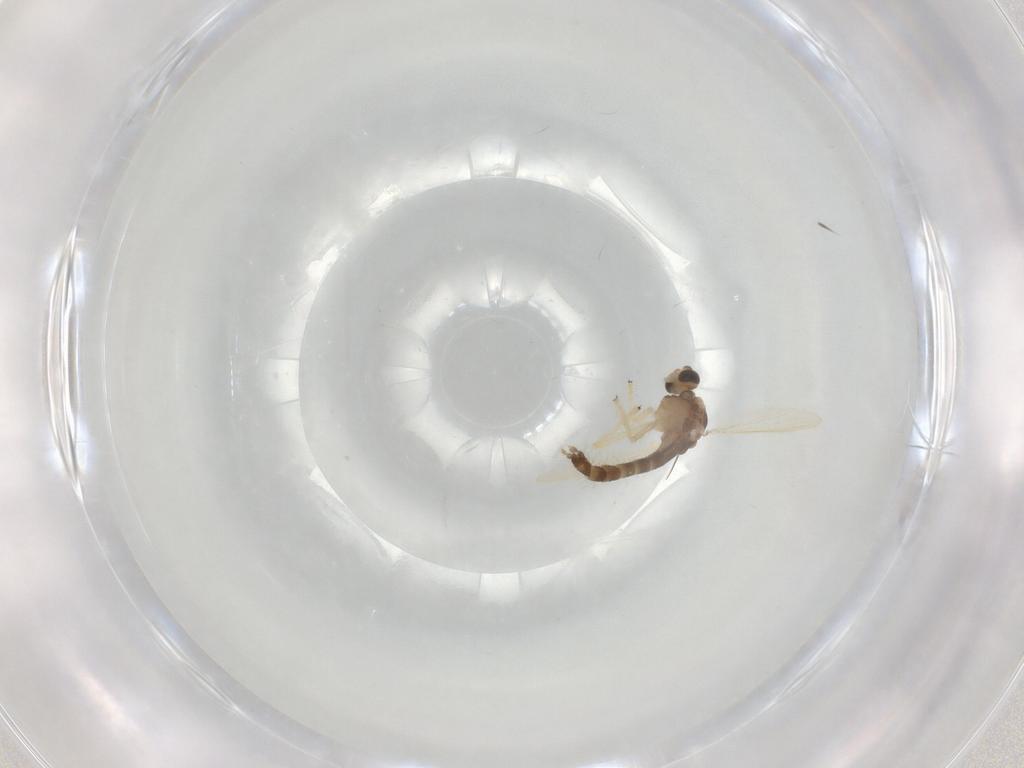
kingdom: Animalia
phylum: Arthropoda
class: Insecta
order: Diptera
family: Chironomidae
